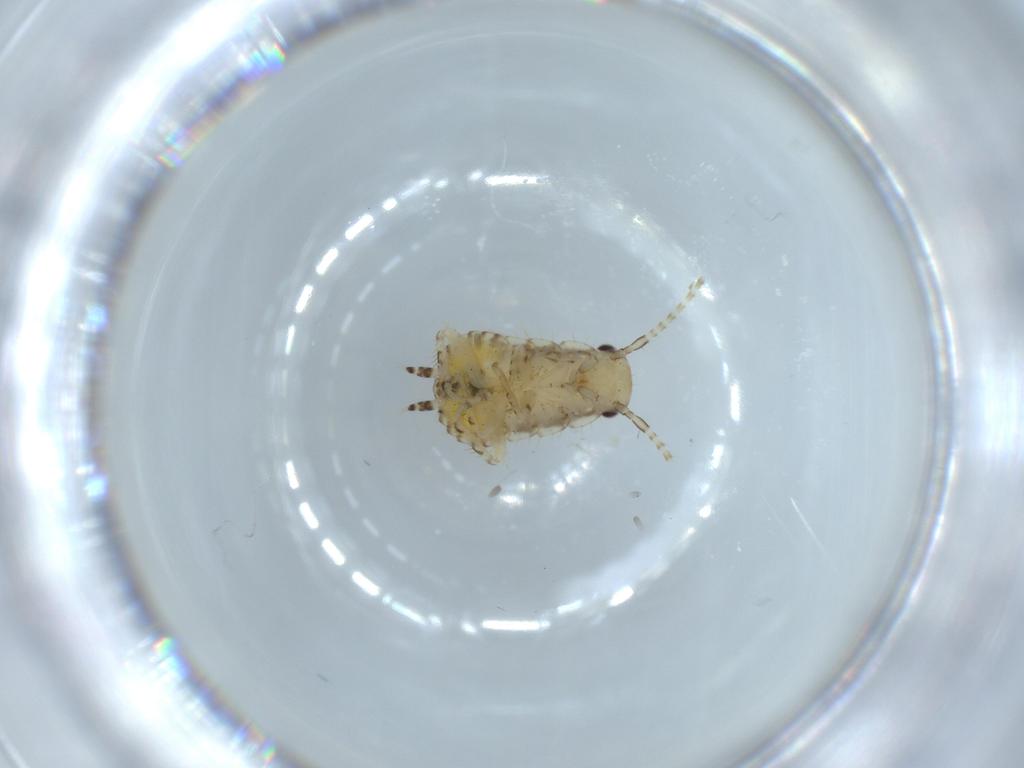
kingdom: Animalia
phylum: Arthropoda
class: Insecta
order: Blattodea
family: Ectobiidae
